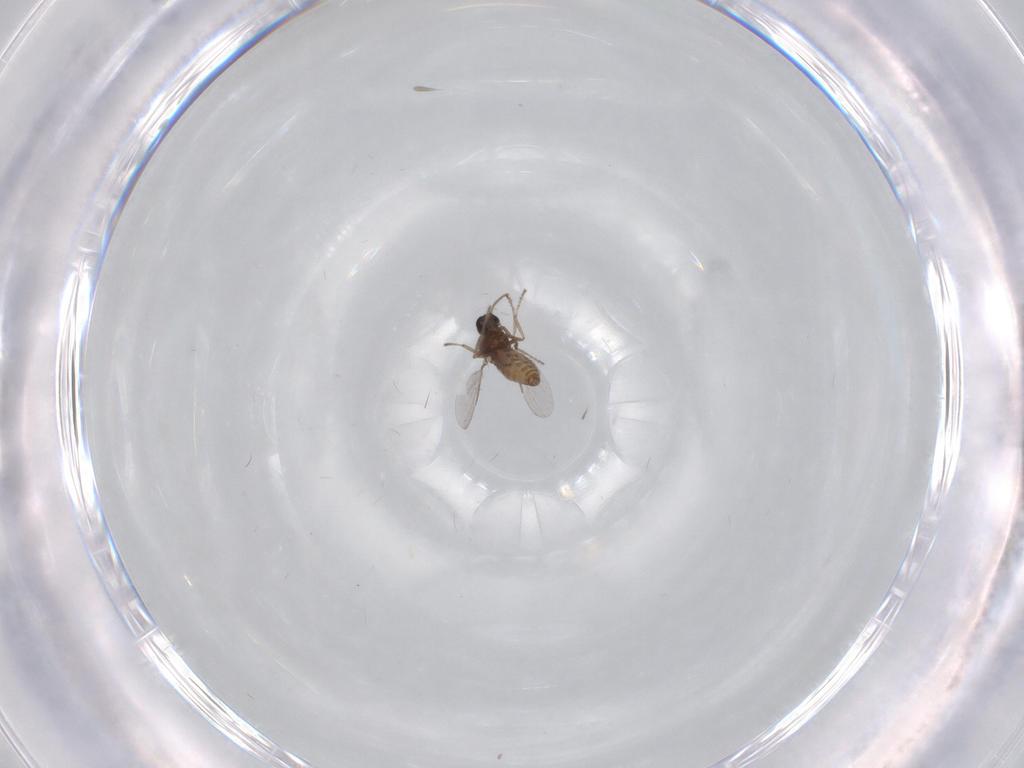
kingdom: Animalia
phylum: Arthropoda
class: Insecta
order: Diptera
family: Ceratopogonidae
